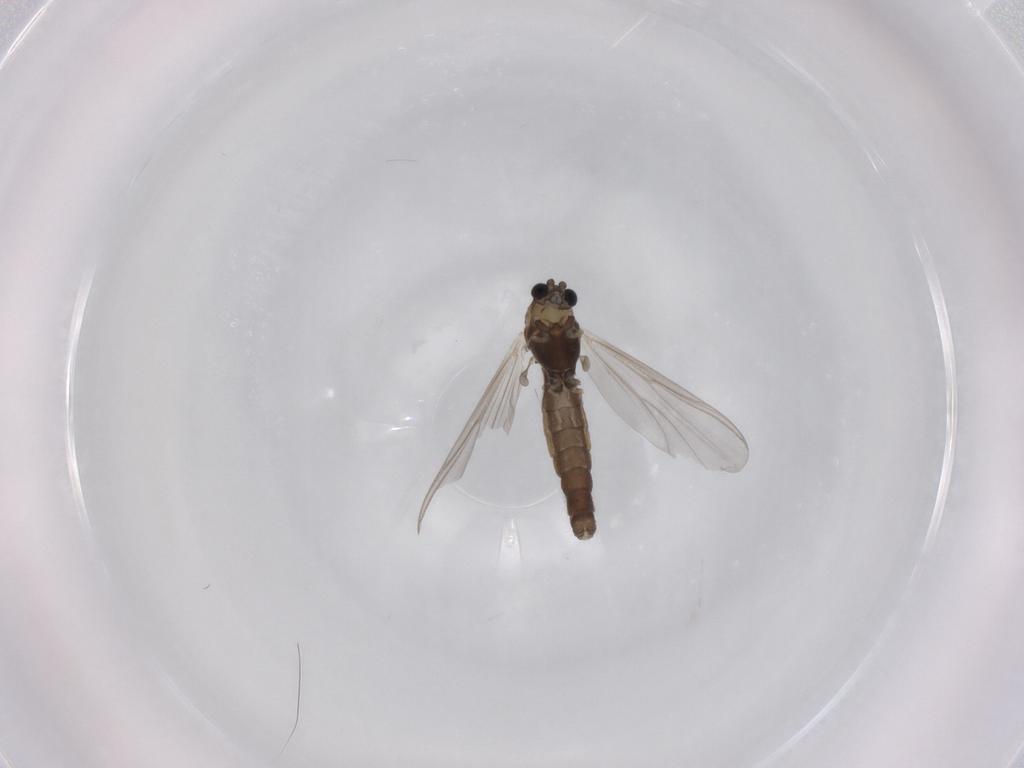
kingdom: Animalia
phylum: Arthropoda
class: Insecta
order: Diptera
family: Chironomidae
